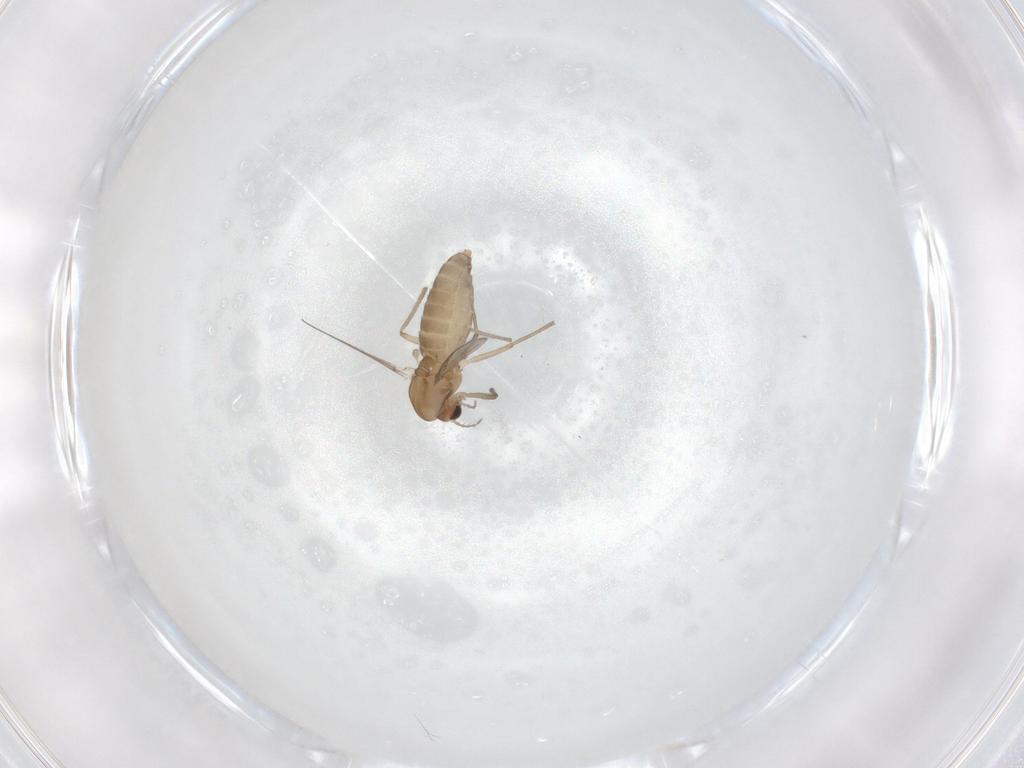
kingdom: Animalia
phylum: Arthropoda
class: Insecta
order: Diptera
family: Chironomidae
